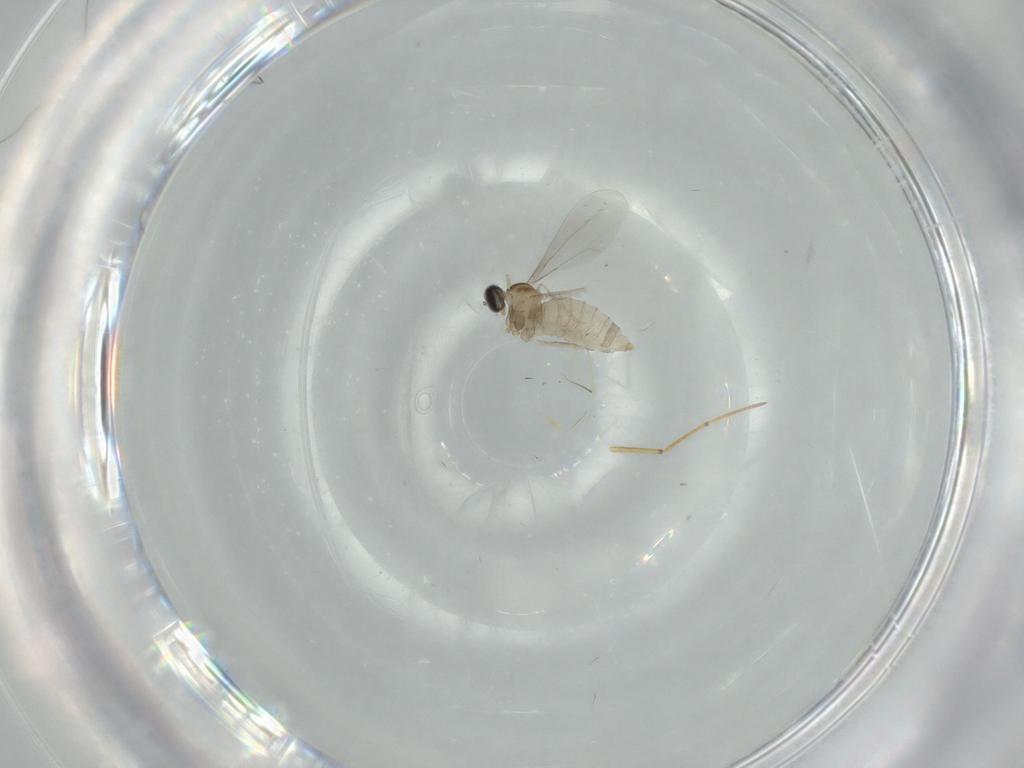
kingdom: Animalia
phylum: Arthropoda
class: Insecta
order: Diptera
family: Cecidomyiidae
